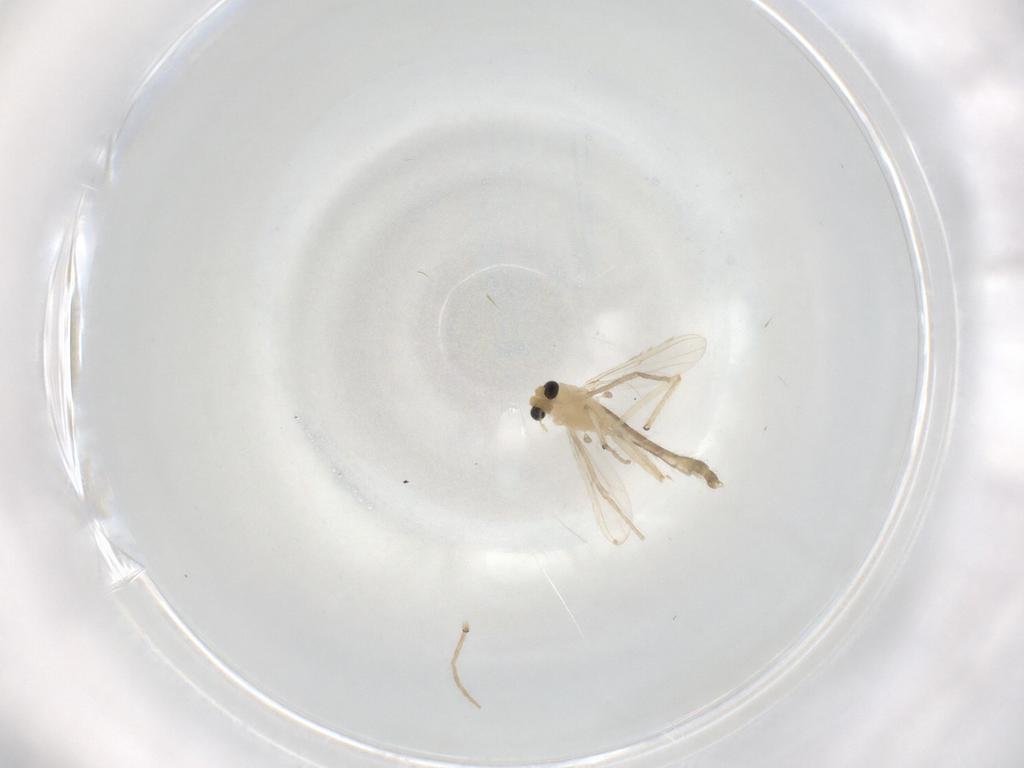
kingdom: Animalia
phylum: Arthropoda
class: Insecta
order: Diptera
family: Chironomidae
